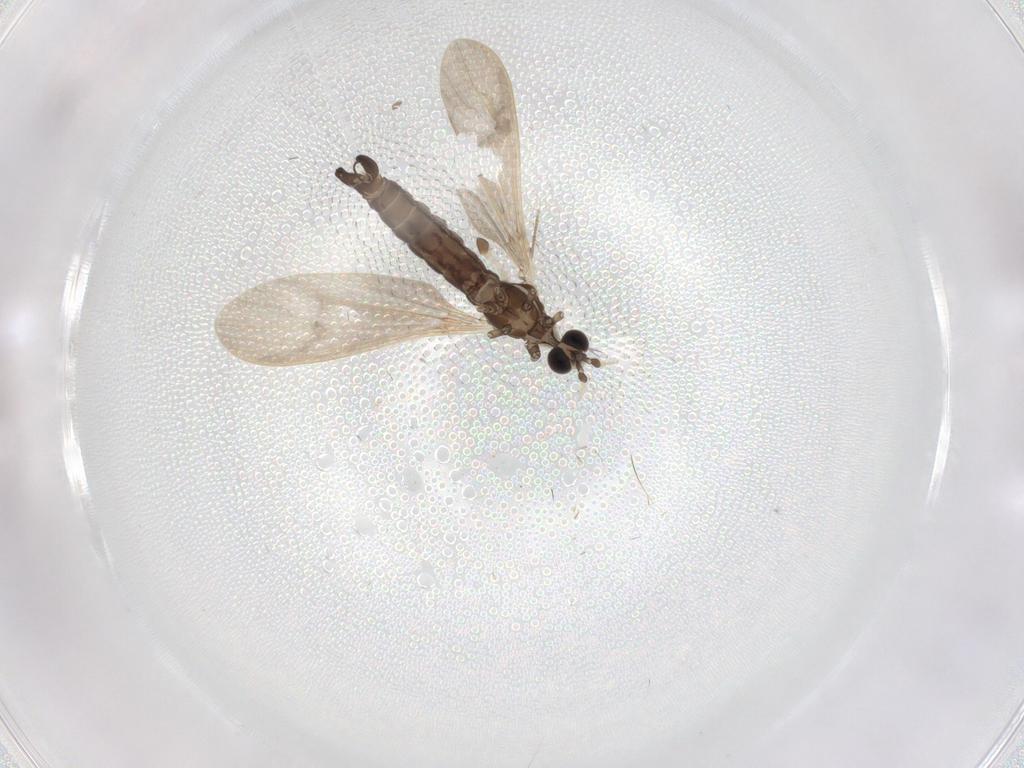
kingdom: Animalia
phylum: Arthropoda
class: Insecta
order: Diptera
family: Limoniidae
